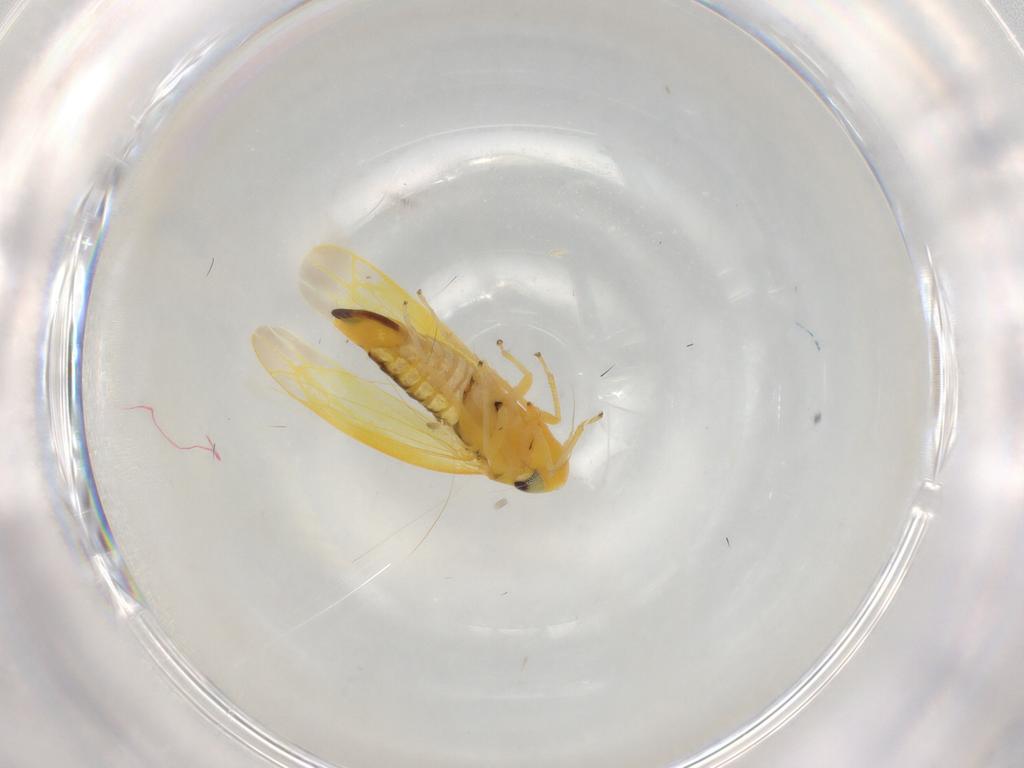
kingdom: Animalia
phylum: Arthropoda
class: Insecta
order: Hemiptera
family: Cicadellidae
